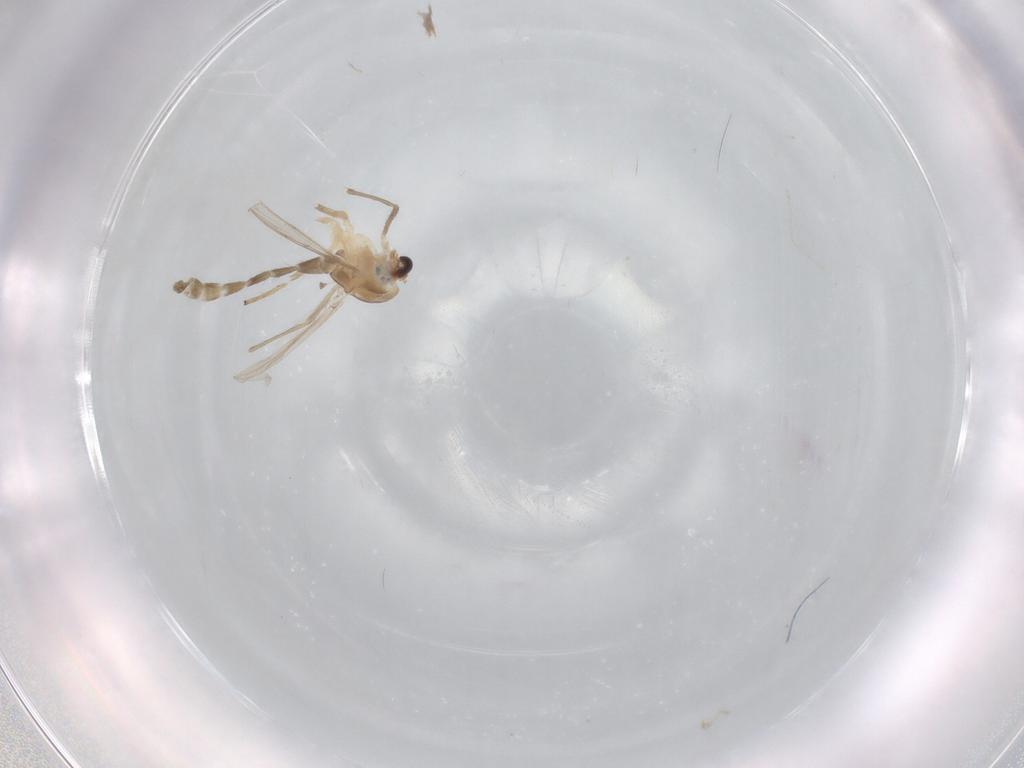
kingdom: Animalia
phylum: Arthropoda
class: Insecta
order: Diptera
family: Chironomidae
